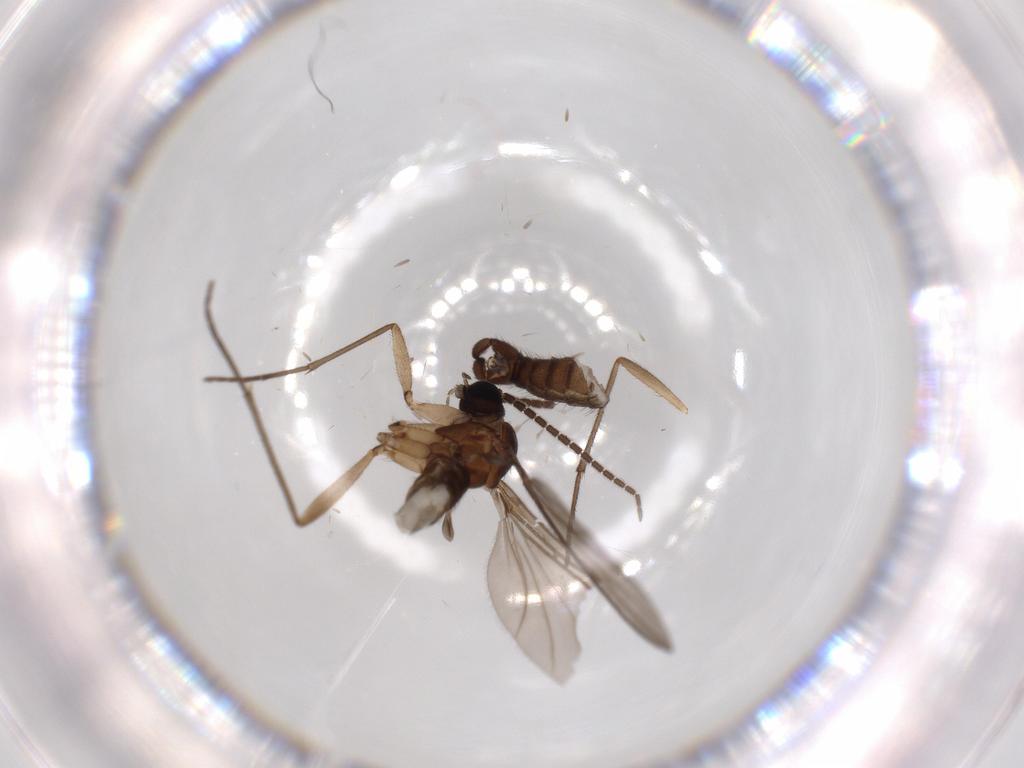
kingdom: Animalia
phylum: Arthropoda
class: Insecta
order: Diptera
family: Sciaridae
